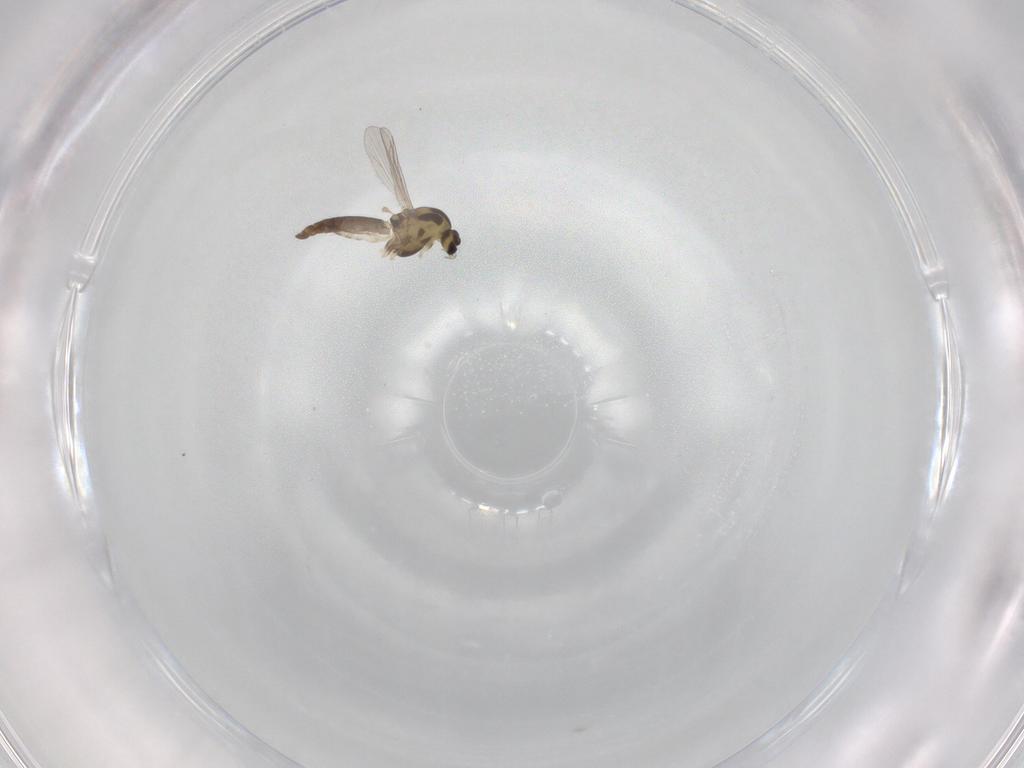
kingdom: Animalia
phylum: Arthropoda
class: Insecta
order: Diptera
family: Chironomidae
